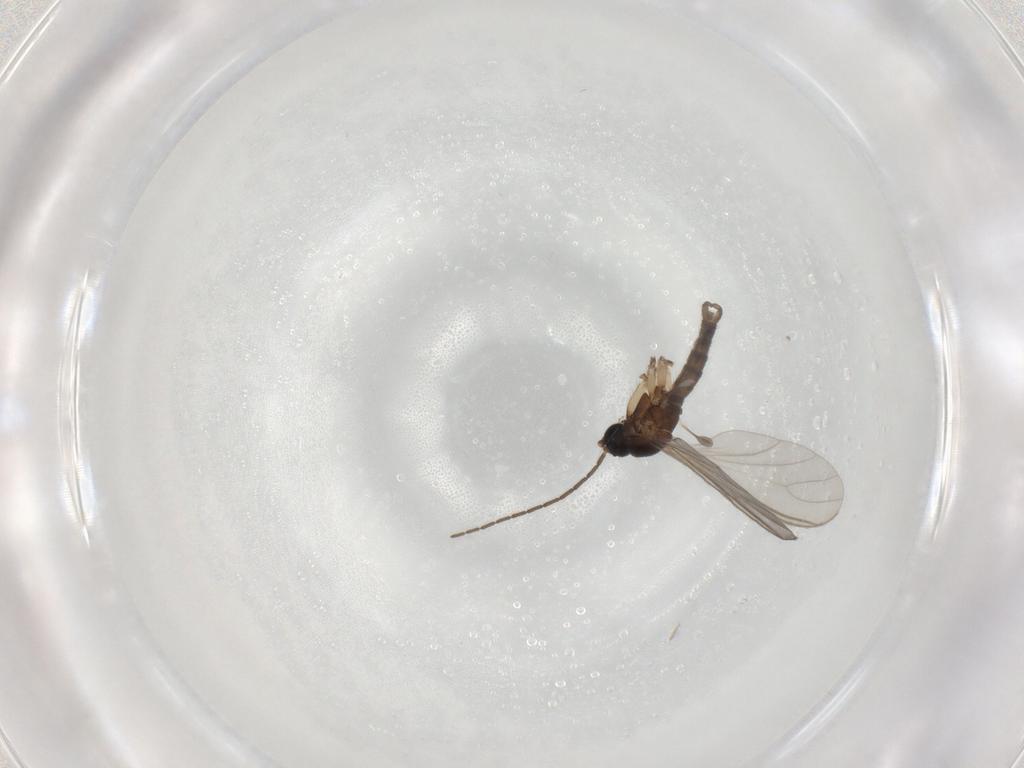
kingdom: Animalia
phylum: Arthropoda
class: Insecta
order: Diptera
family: Sciaridae
